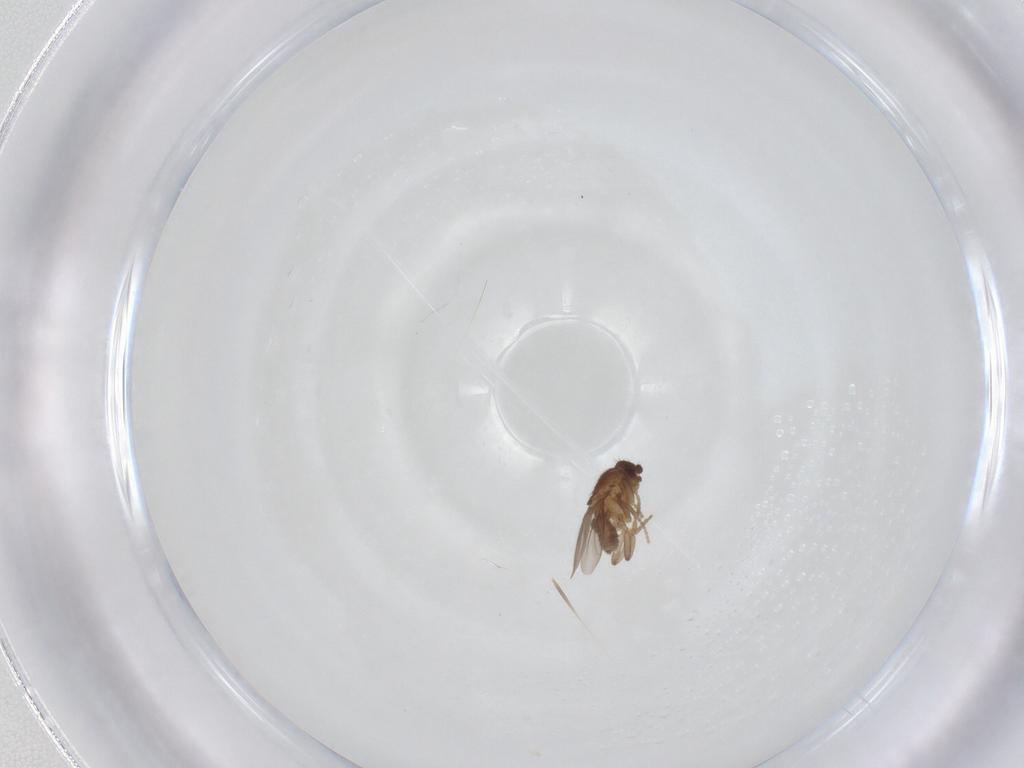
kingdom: Animalia
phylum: Arthropoda
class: Insecta
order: Diptera
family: Sphaeroceridae
